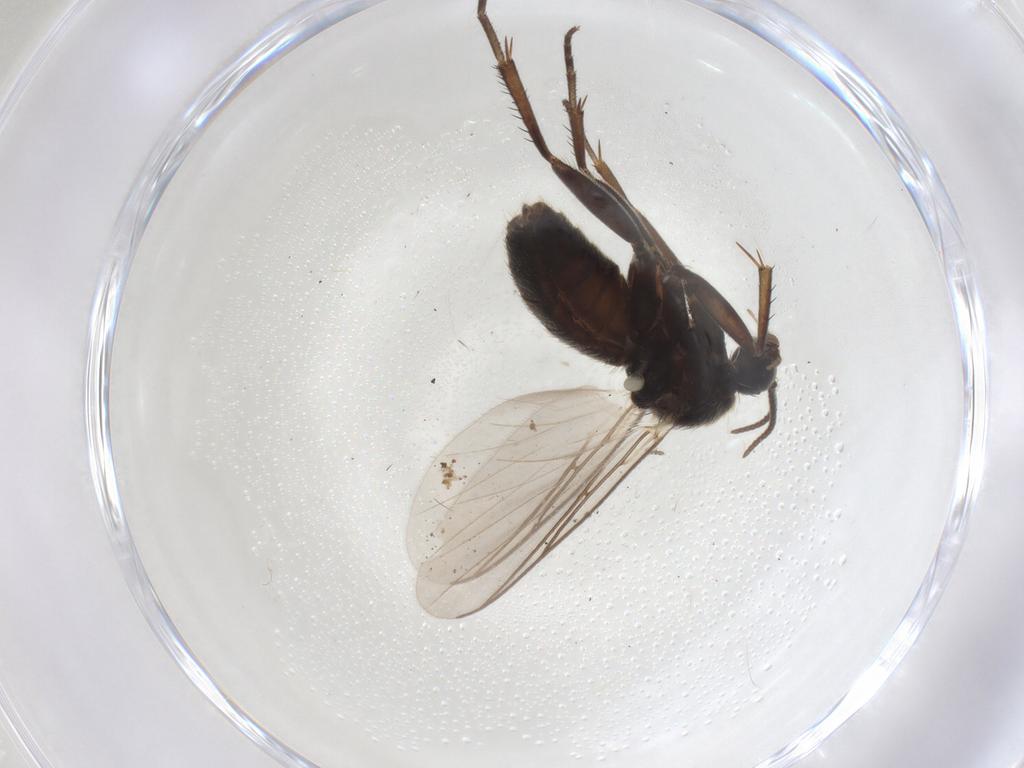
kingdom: Animalia
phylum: Arthropoda
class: Insecta
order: Diptera
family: Mycetophilidae
